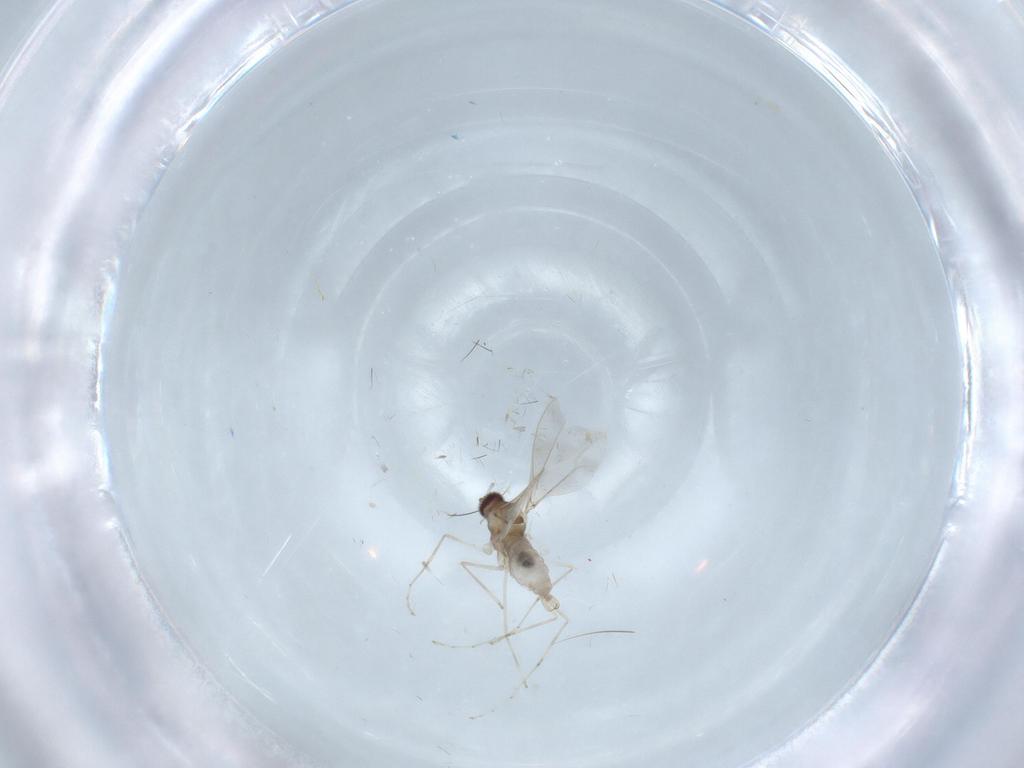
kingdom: Animalia
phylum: Arthropoda
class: Insecta
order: Diptera
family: Cecidomyiidae
